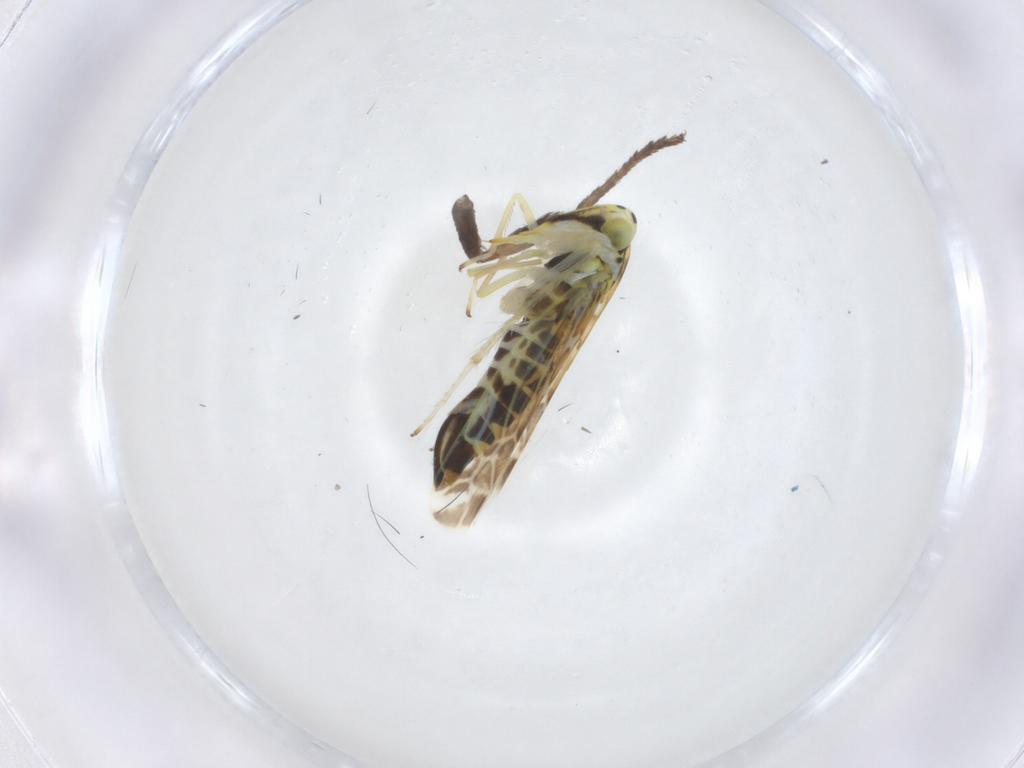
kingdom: Animalia
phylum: Arthropoda
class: Insecta
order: Hemiptera
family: Cicadellidae
